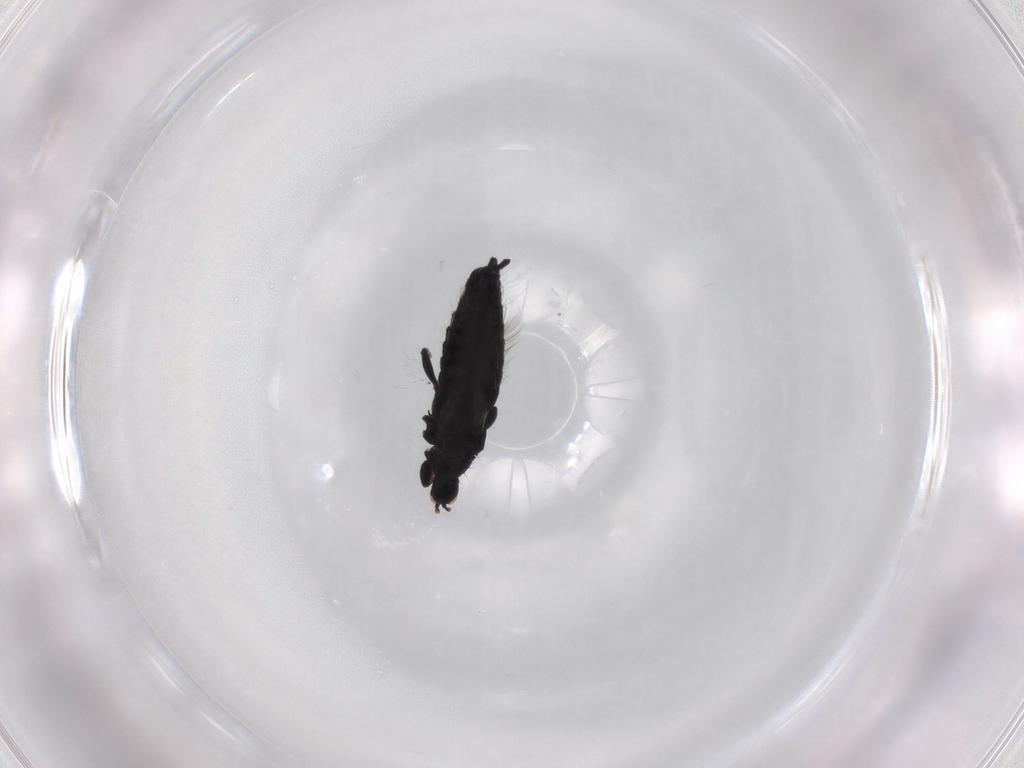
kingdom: Animalia
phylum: Arthropoda
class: Insecta
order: Thysanoptera
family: Phlaeothripidae
